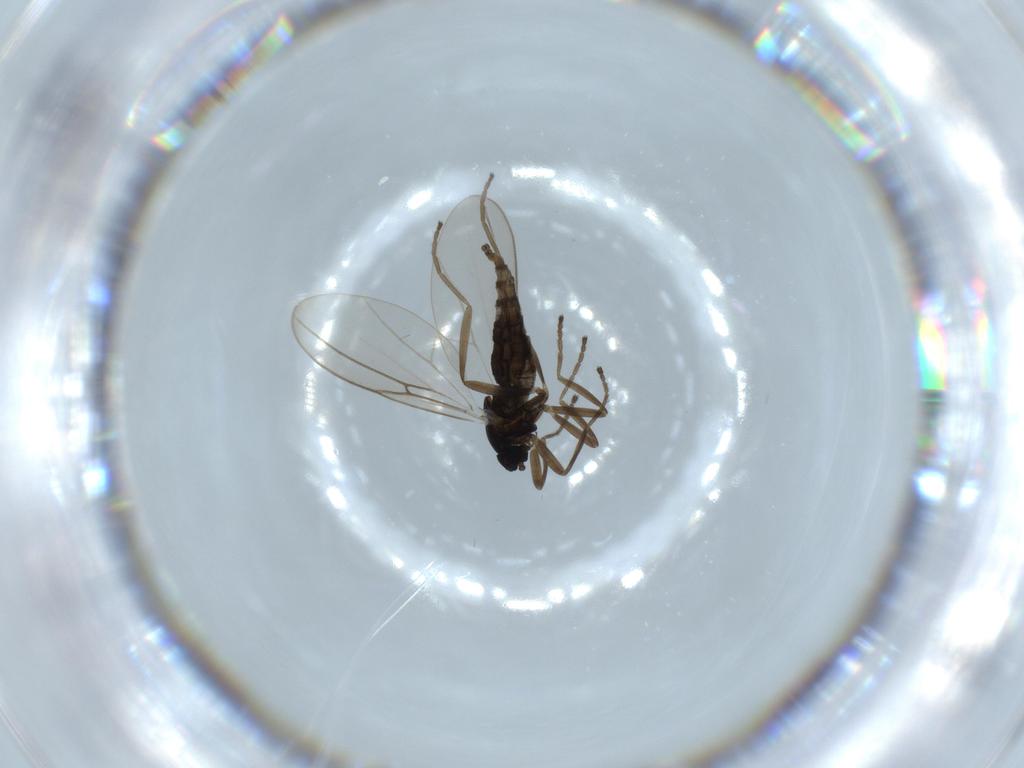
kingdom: Animalia
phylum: Arthropoda
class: Insecta
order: Diptera
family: Cecidomyiidae
